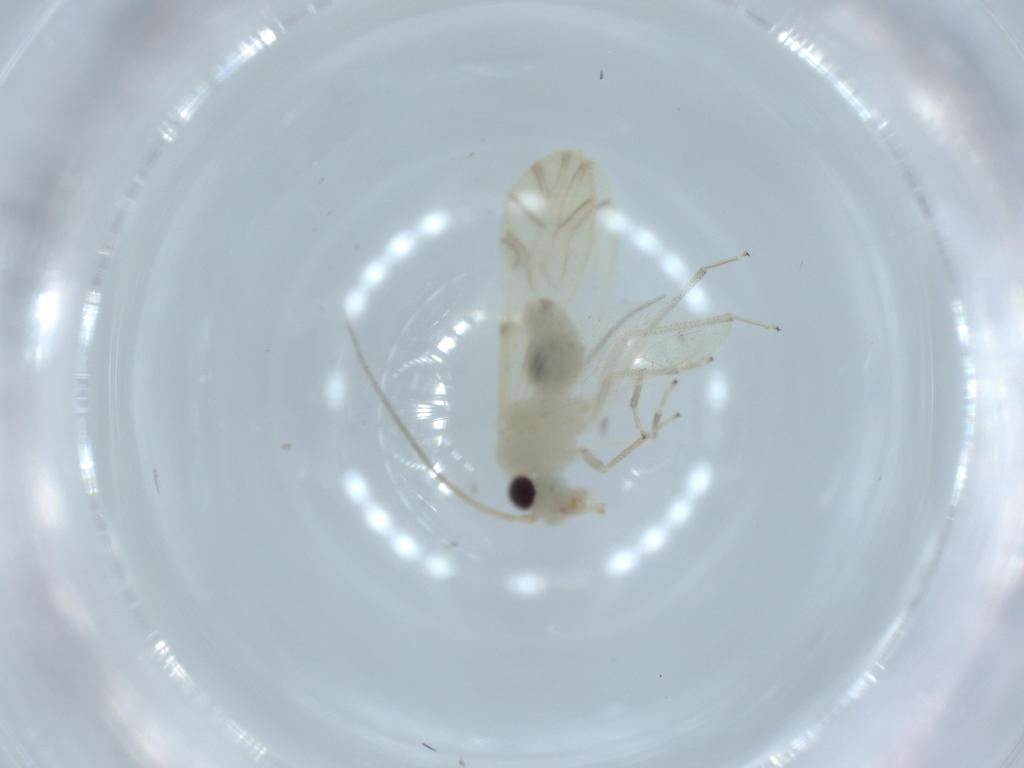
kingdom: Animalia
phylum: Arthropoda
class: Insecta
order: Psocodea
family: Caeciliusidae
